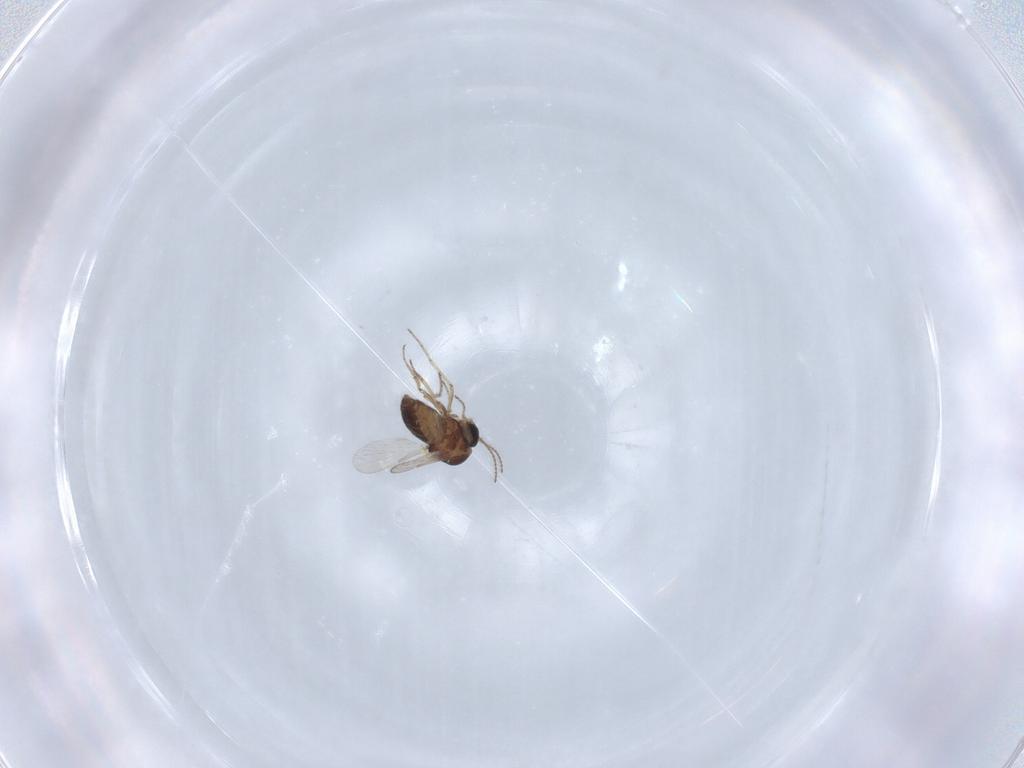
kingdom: Animalia
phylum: Arthropoda
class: Insecta
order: Diptera
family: Ceratopogonidae
